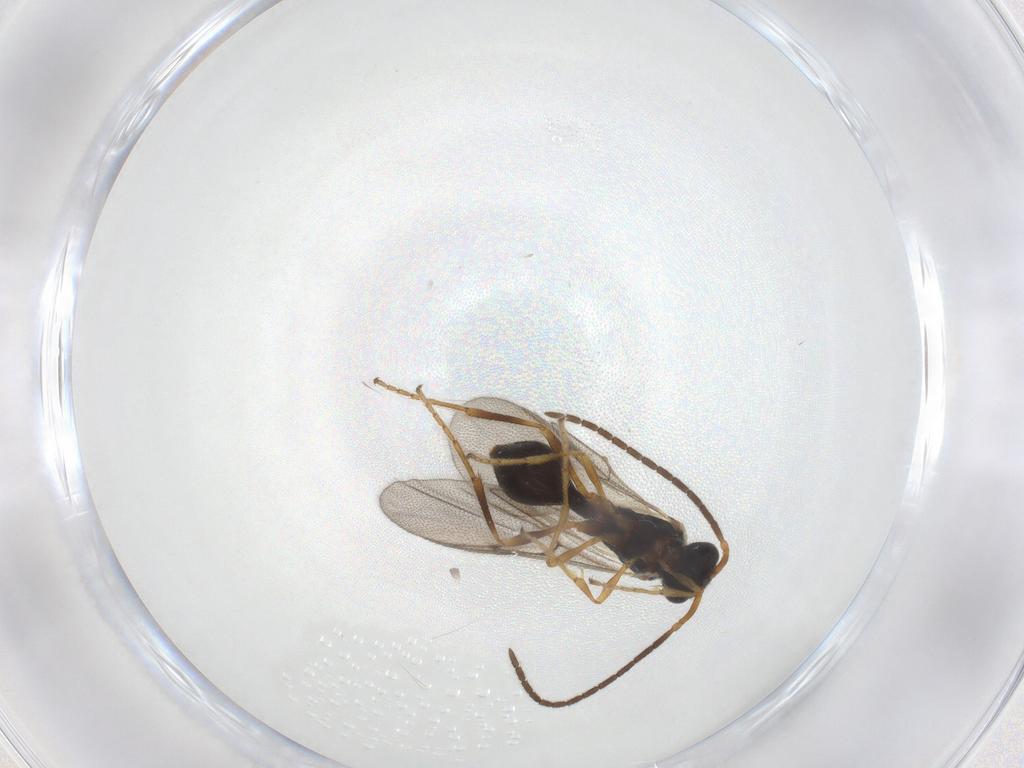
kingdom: Animalia
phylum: Arthropoda
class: Insecta
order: Hymenoptera
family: Diapriidae
